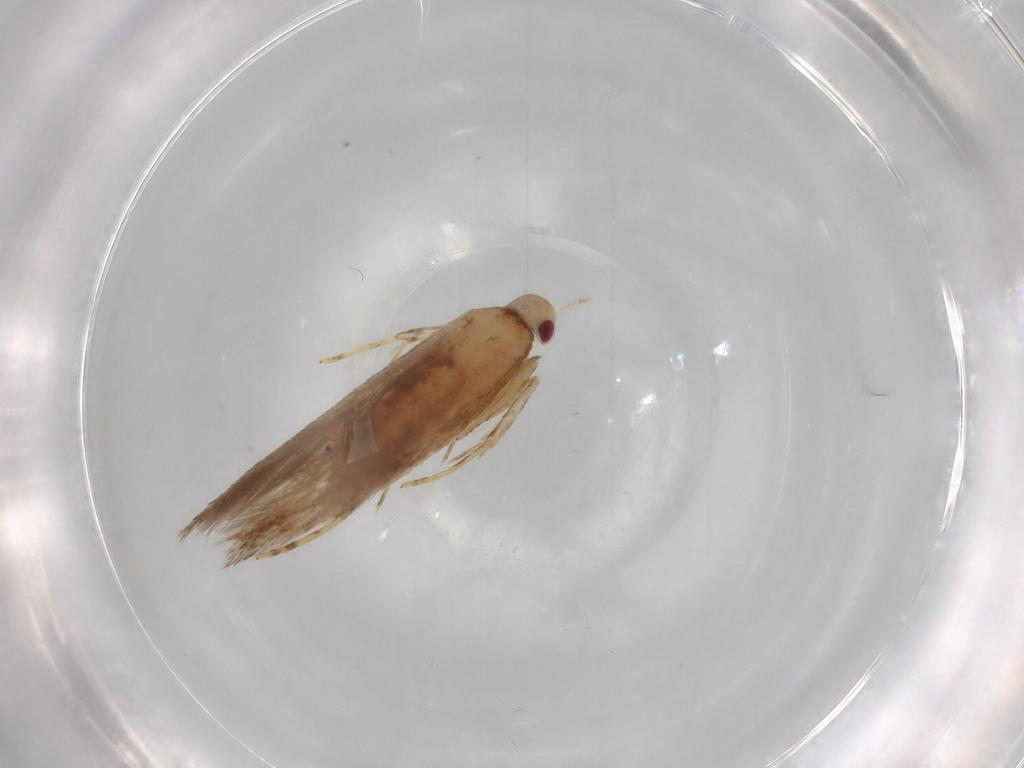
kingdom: Animalia
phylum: Arthropoda
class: Insecta
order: Lepidoptera
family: Cosmopterigidae
